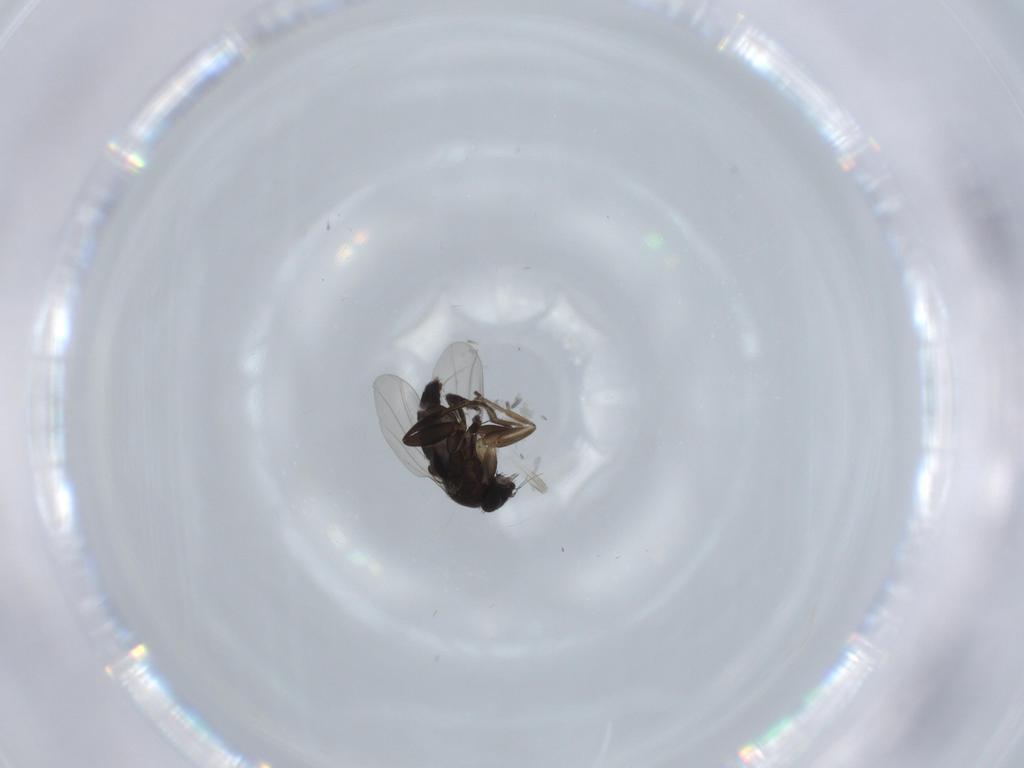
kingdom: Animalia
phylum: Arthropoda
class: Insecta
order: Diptera
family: Phoridae
